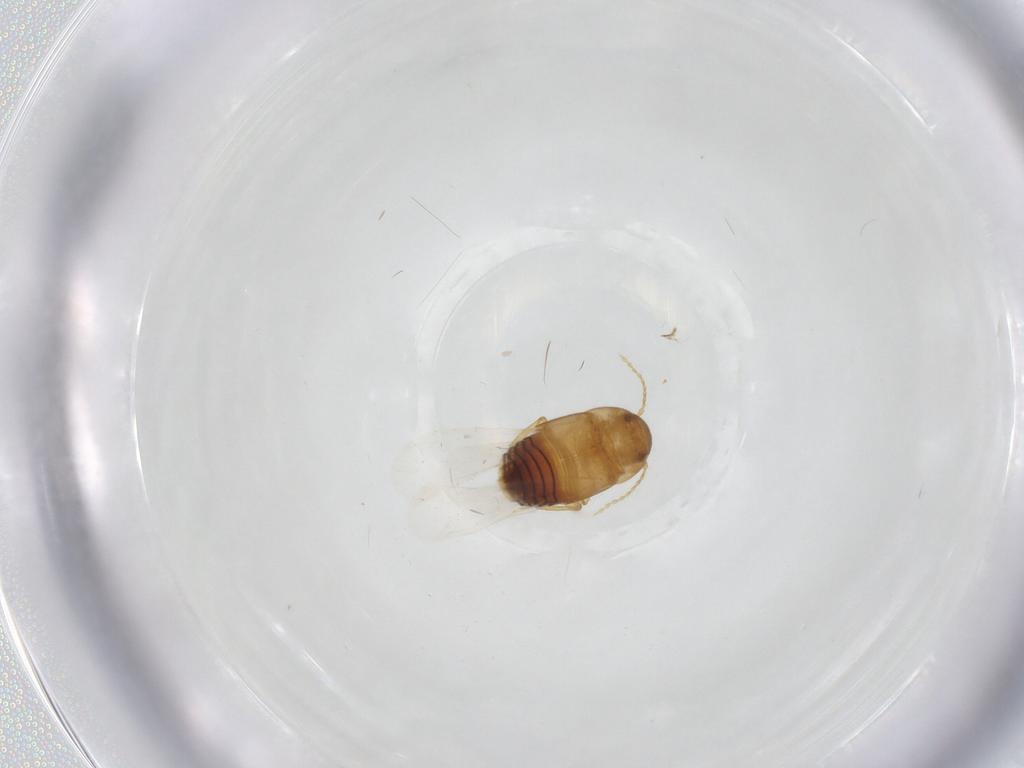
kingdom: Animalia
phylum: Arthropoda
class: Insecta
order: Coleoptera
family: Staphylinidae
